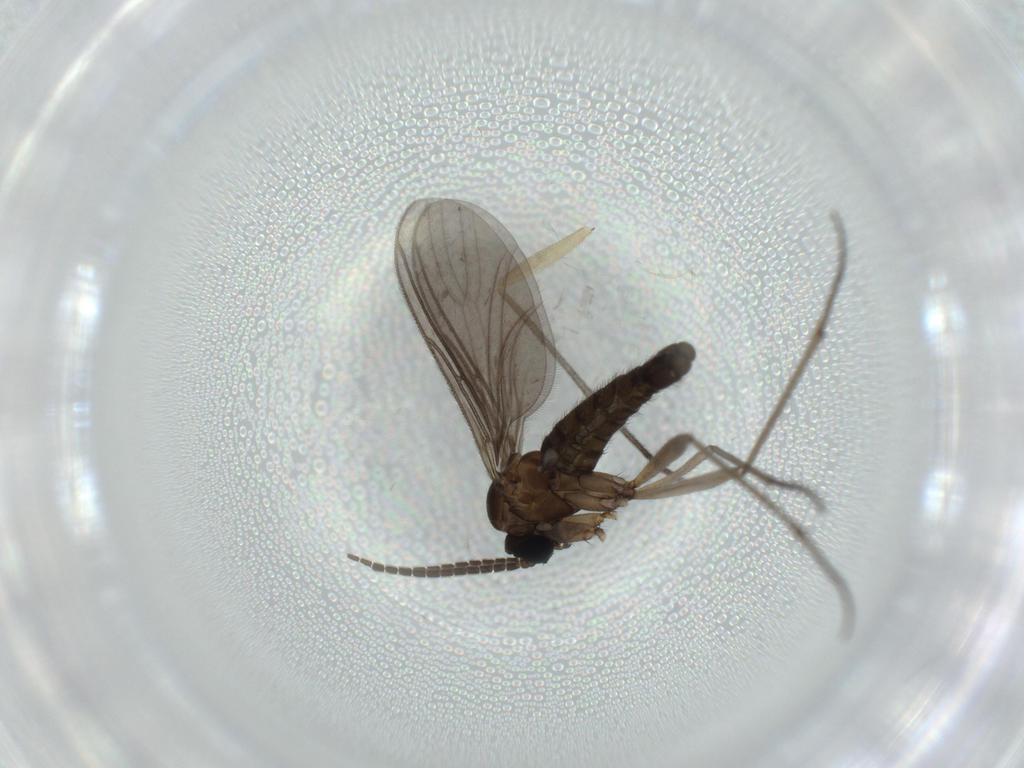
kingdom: Animalia
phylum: Arthropoda
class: Insecta
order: Diptera
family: Sciaridae
